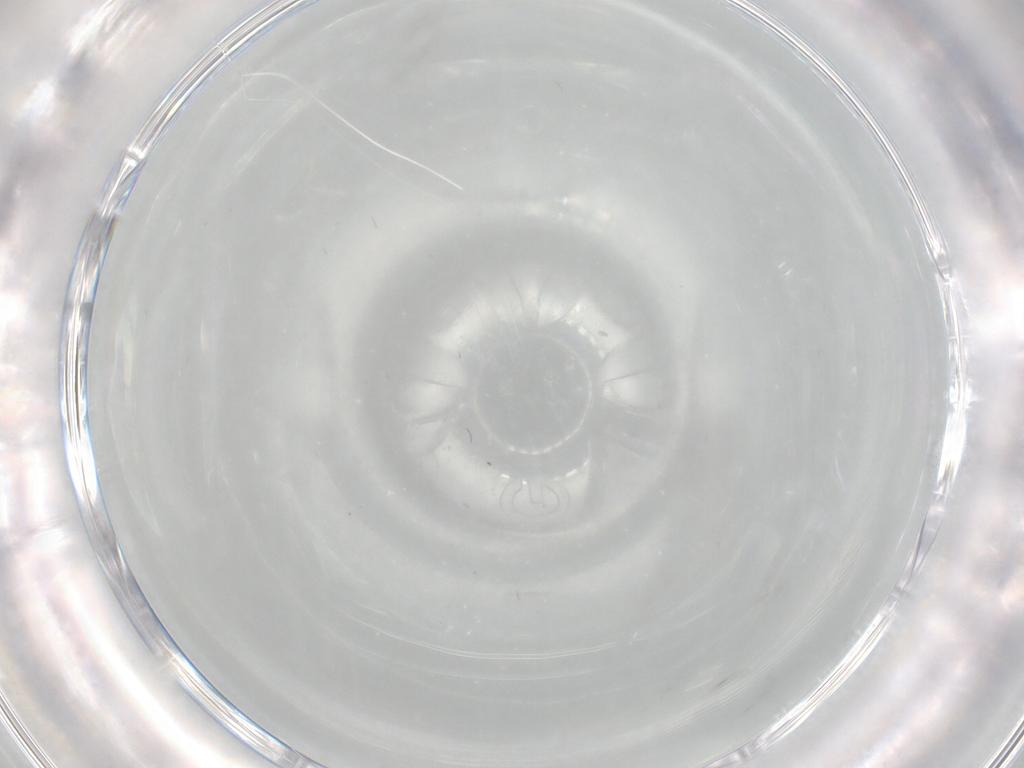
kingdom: Animalia
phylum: Arthropoda
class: Insecta
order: Diptera
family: Cecidomyiidae
